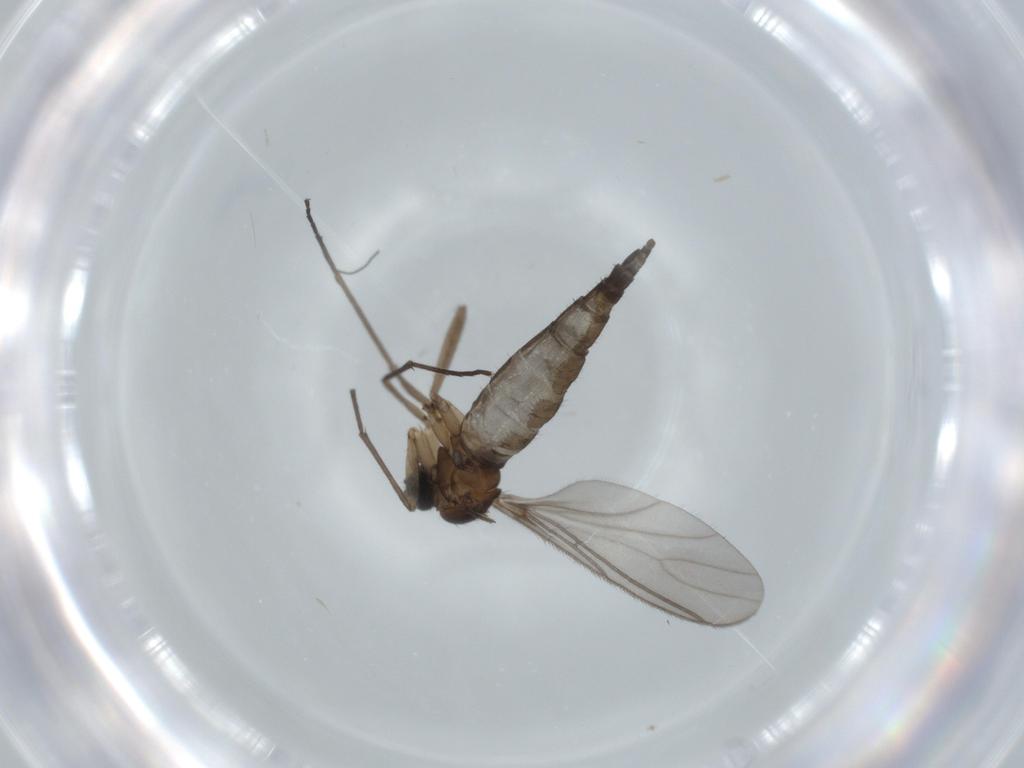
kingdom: Animalia
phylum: Arthropoda
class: Insecta
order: Diptera
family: Sciaridae
